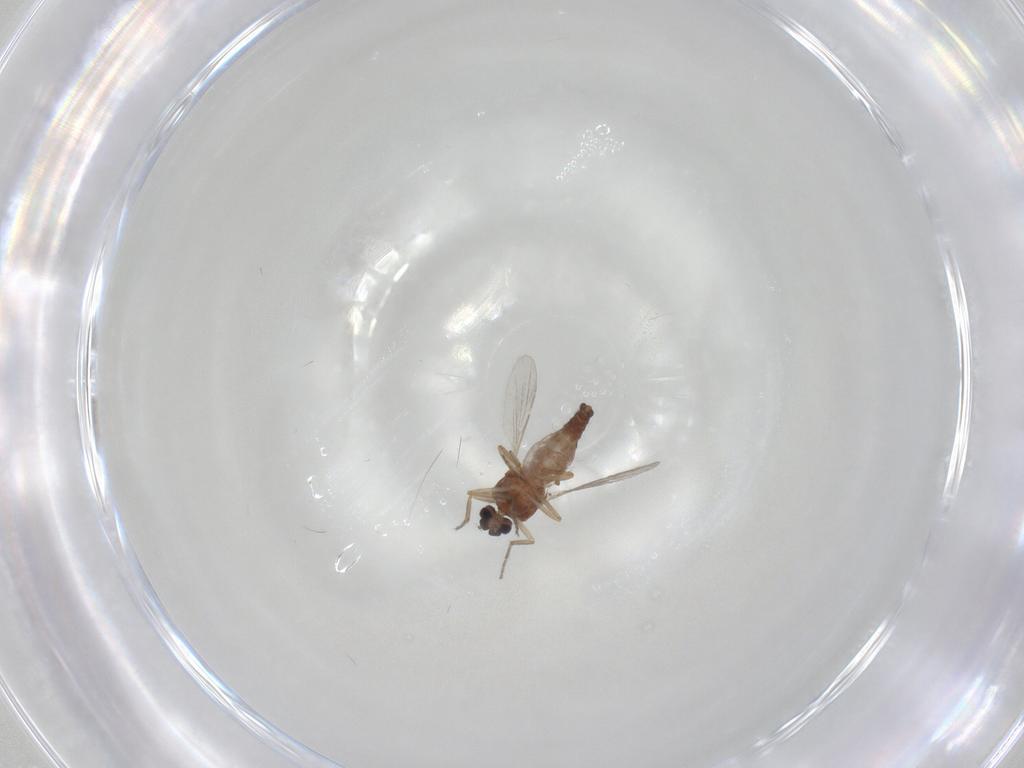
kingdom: Animalia
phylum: Arthropoda
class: Insecta
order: Diptera
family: Ceratopogonidae
